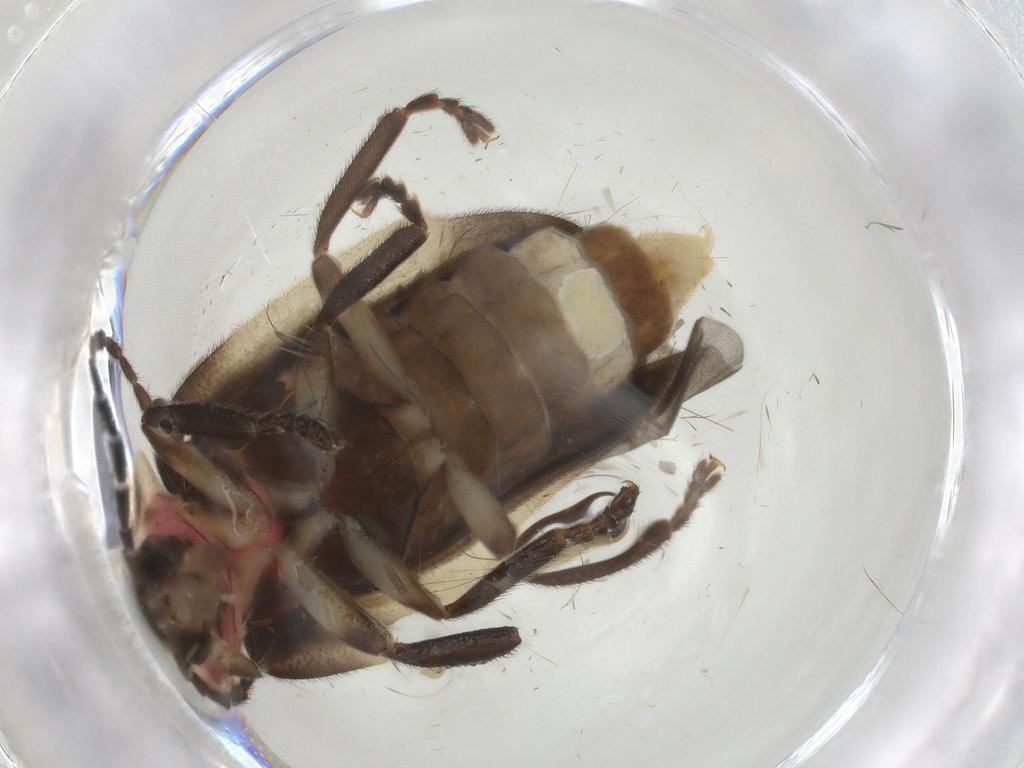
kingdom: Animalia
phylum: Arthropoda
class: Insecta
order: Coleoptera
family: Lampyridae
